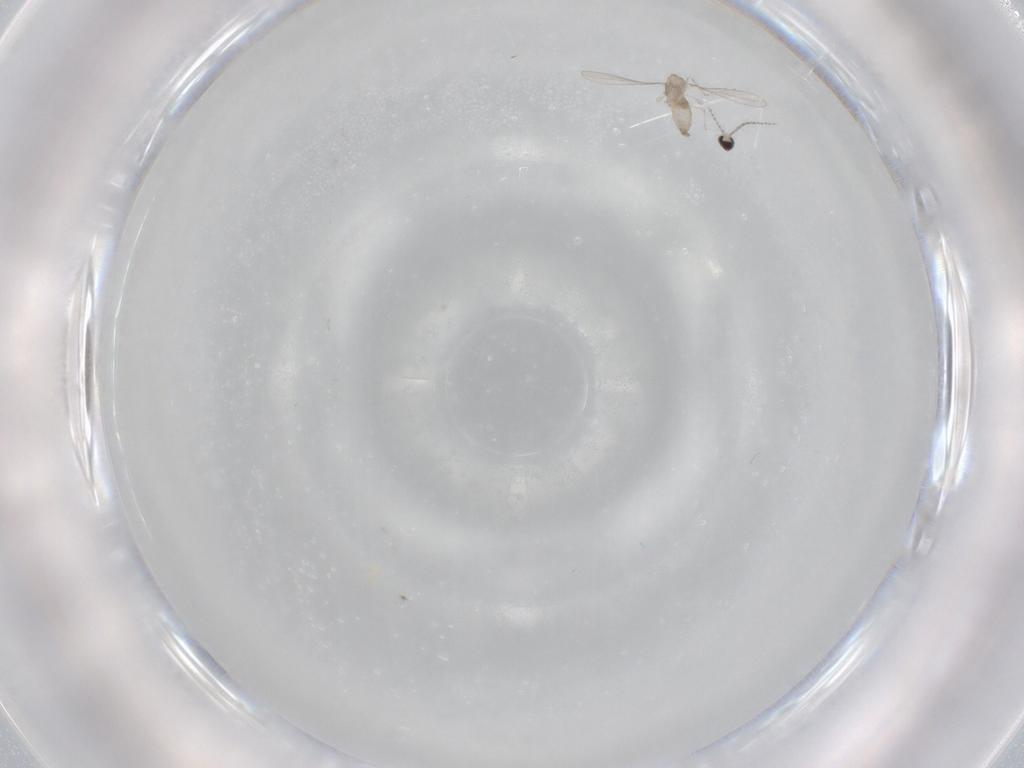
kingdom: Animalia
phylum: Arthropoda
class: Insecta
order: Diptera
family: Cecidomyiidae
